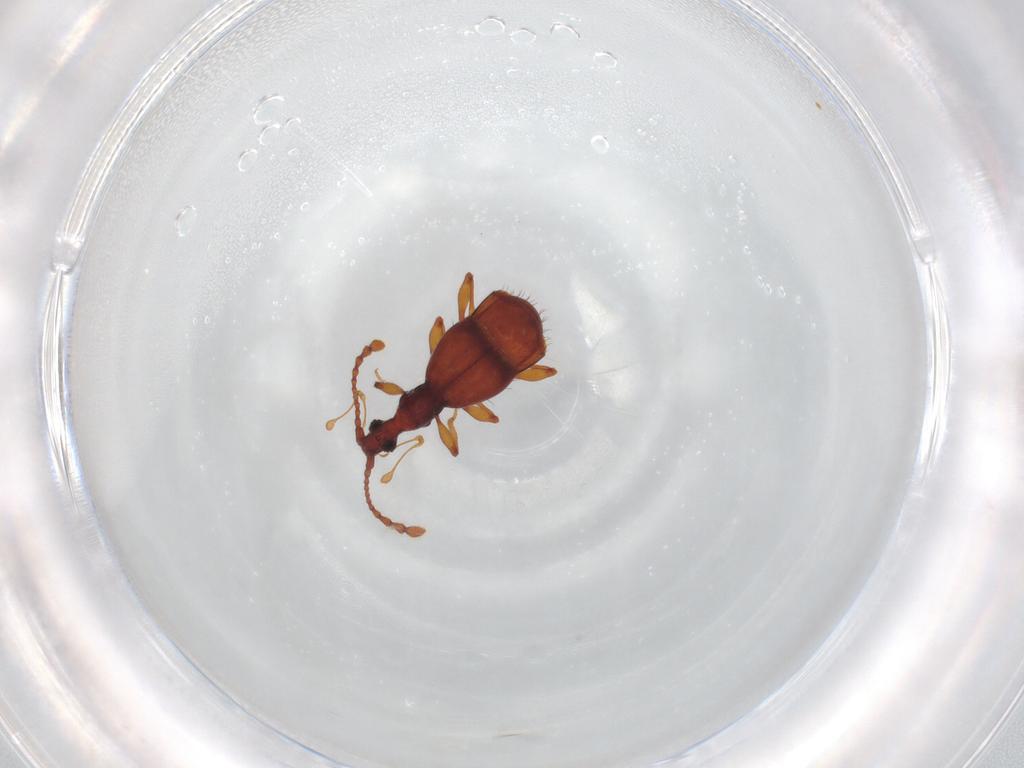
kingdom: Animalia
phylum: Arthropoda
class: Insecta
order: Coleoptera
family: Staphylinidae
